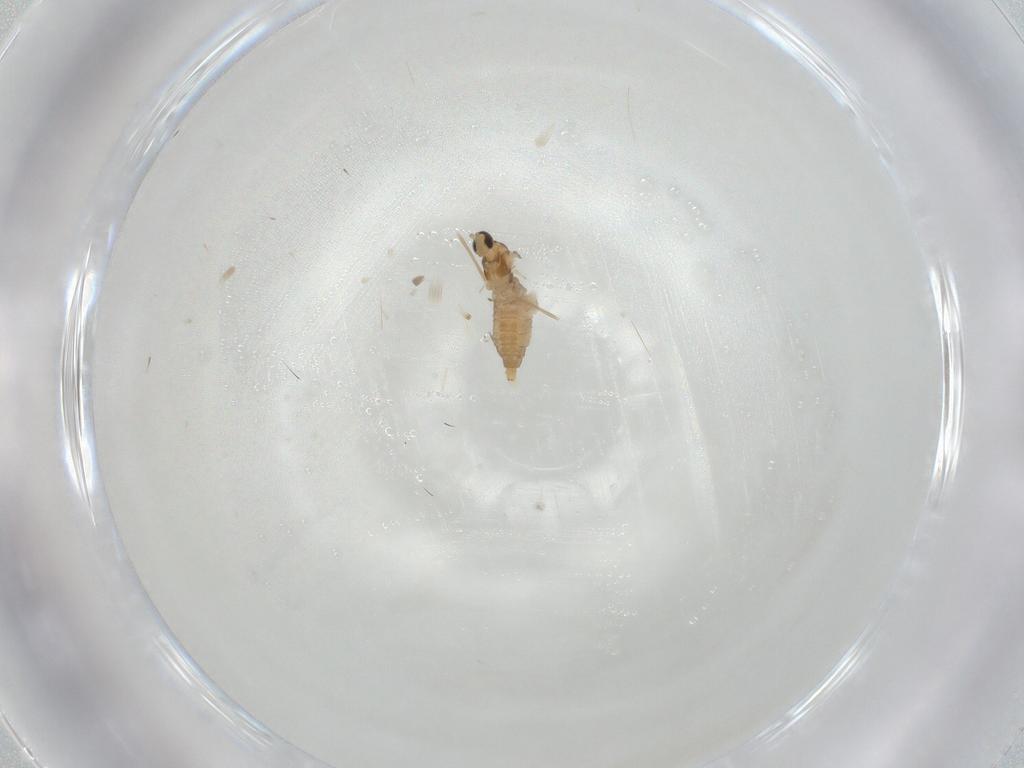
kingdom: Animalia
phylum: Arthropoda
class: Insecta
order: Diptera
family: Cecidomyiidae
